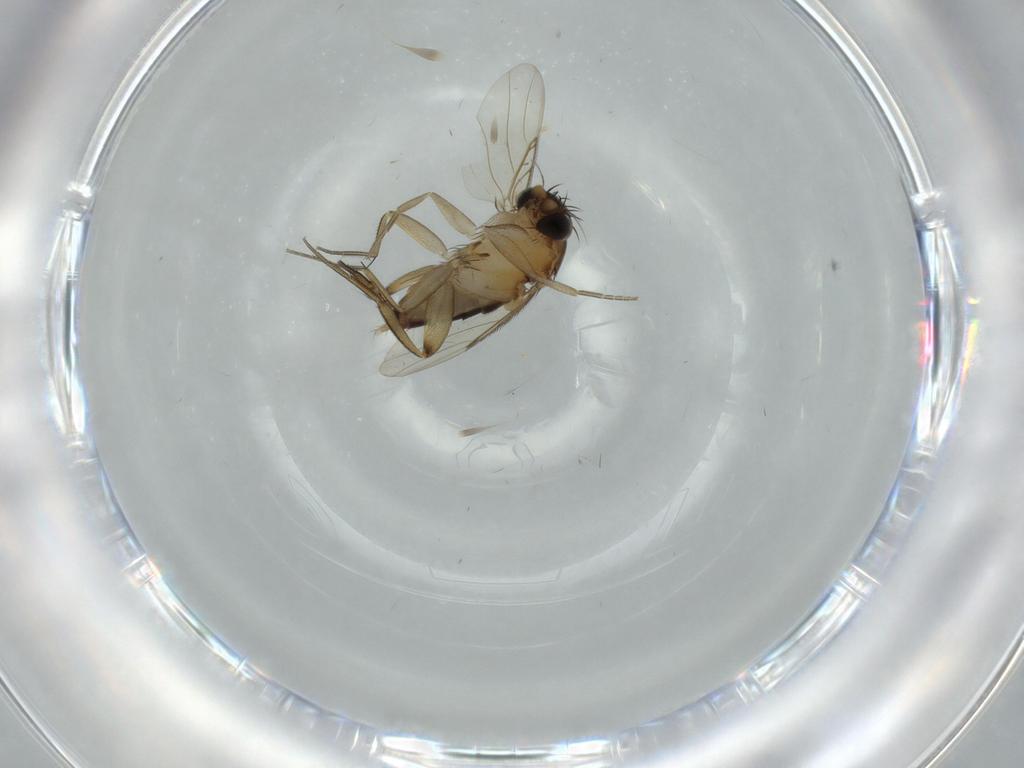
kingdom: Animalia
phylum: Arthropoda
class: Insecta
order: Diptera
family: Phoridae
